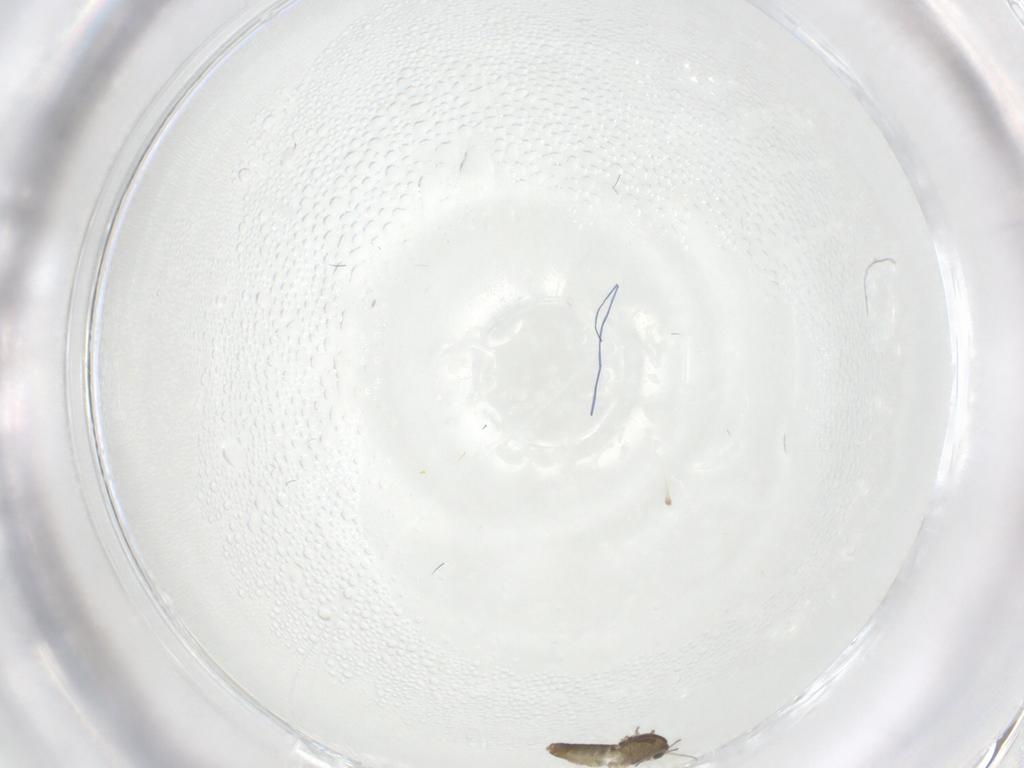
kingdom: Animalia
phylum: Arthropoda
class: Insecta
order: Diptera
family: Chironomidae
